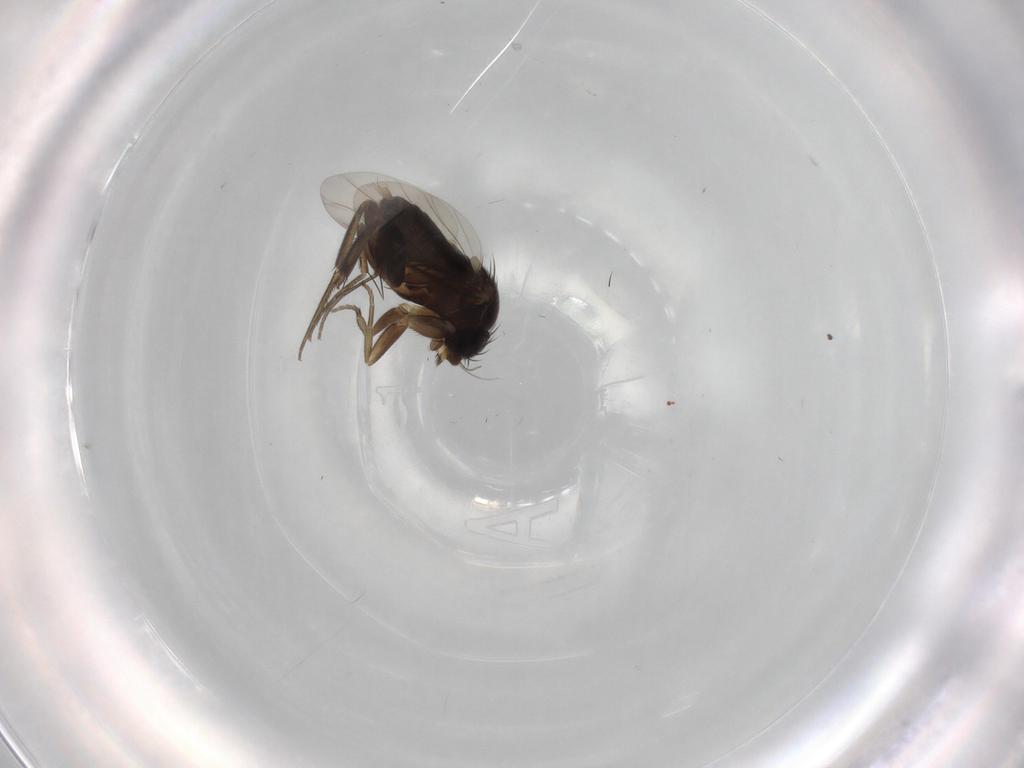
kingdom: Animalia
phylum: Arthropoda
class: Insecta
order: Diptera
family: Phoridae
